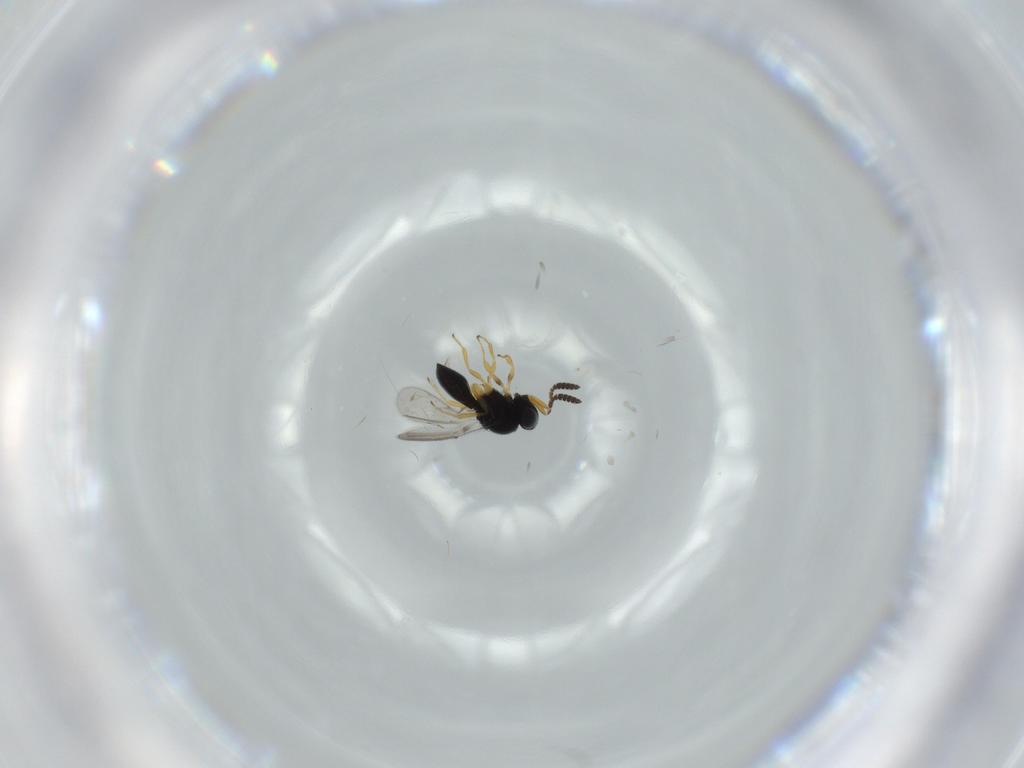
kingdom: Animalia
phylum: Arthropoda
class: Insecta
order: Hymenoptera
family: Scelionidae
